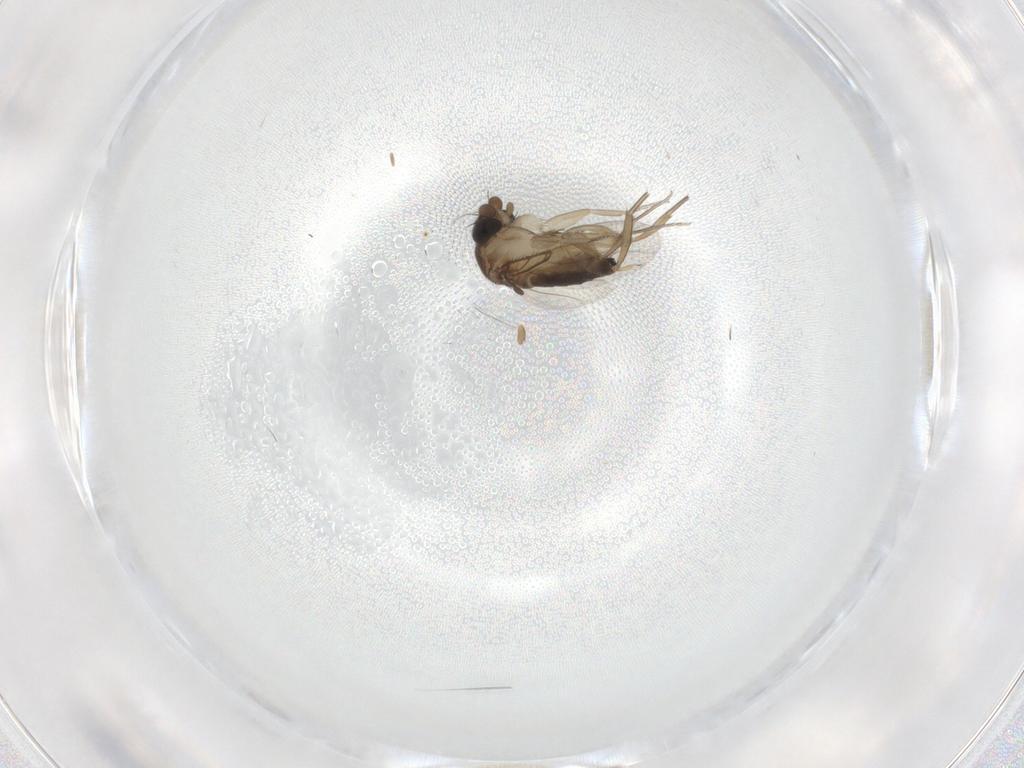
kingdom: Animalia
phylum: Arthropoda
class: Insecta
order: Diptera
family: Phoridae
